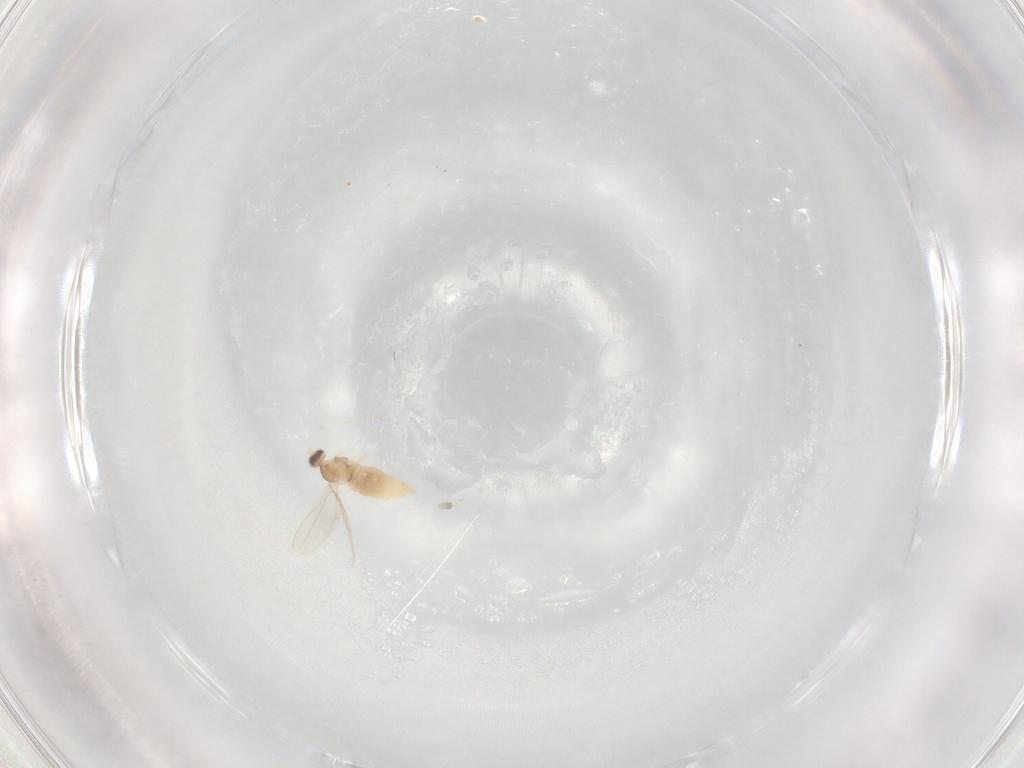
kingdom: Animalia
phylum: Arthropoda
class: Insecta
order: Diptera
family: Cecidomyiidae
